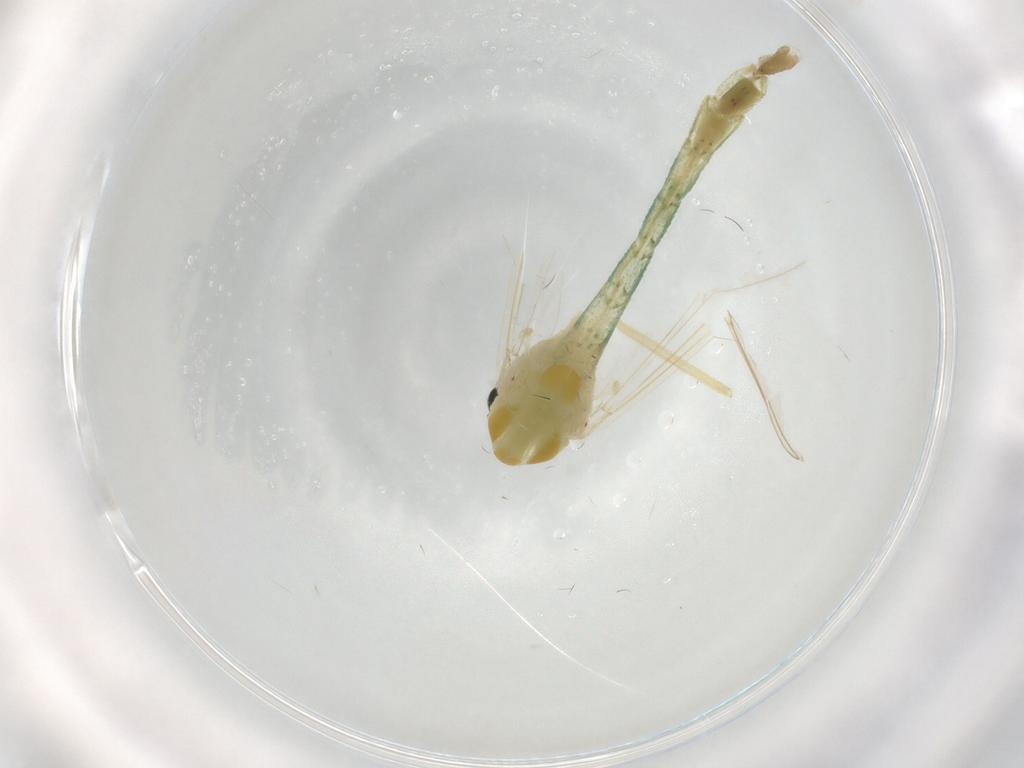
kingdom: Animalia
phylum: Arthropoda
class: Insecta
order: Diptera
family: Chironomidae
